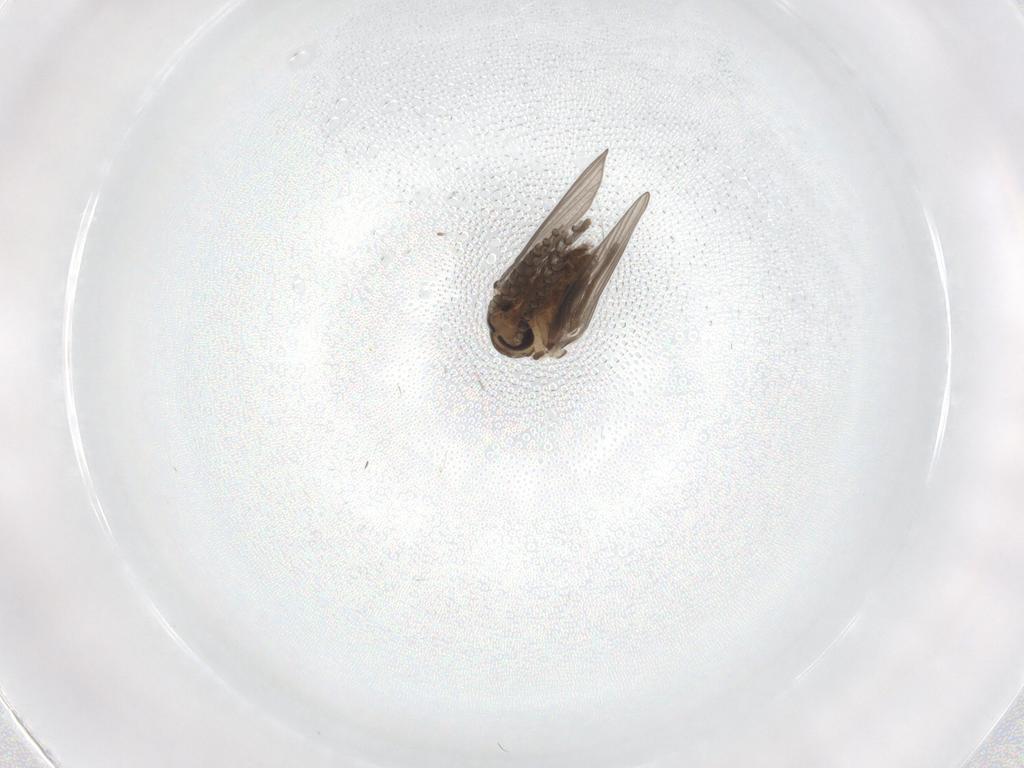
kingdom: Animalia
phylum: Arthropoda
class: Insecta
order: Diptera
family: Psychodidae
